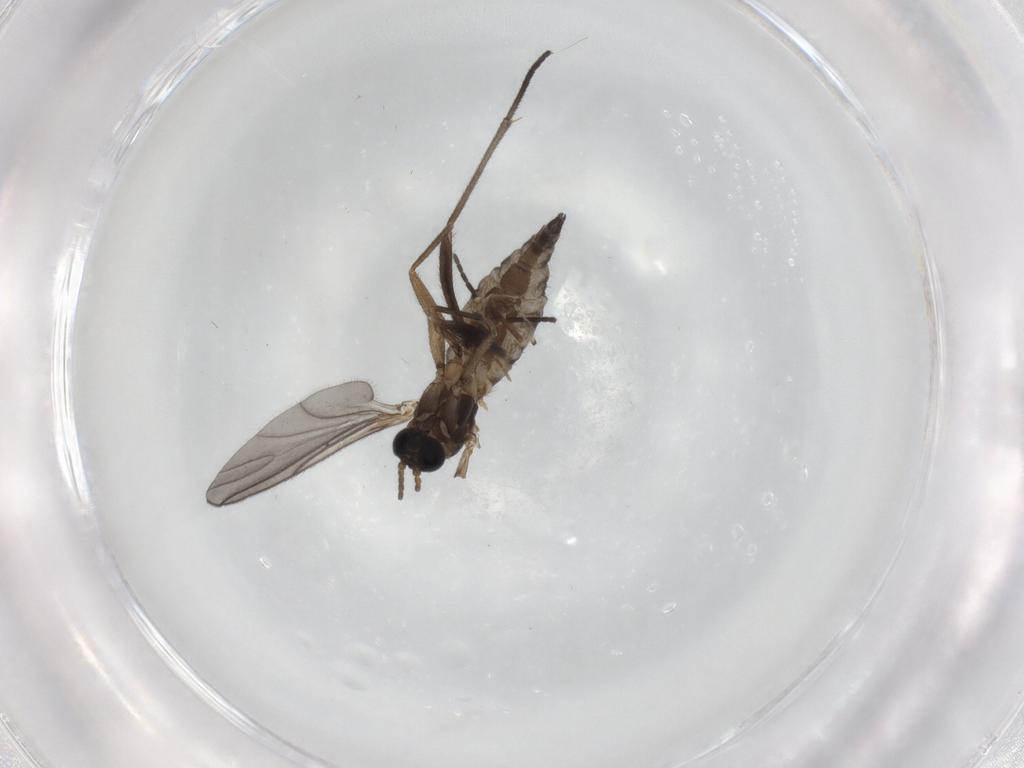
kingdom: Animalia
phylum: Arthropoda
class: Insecta
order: Diptera
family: Sciaridae
